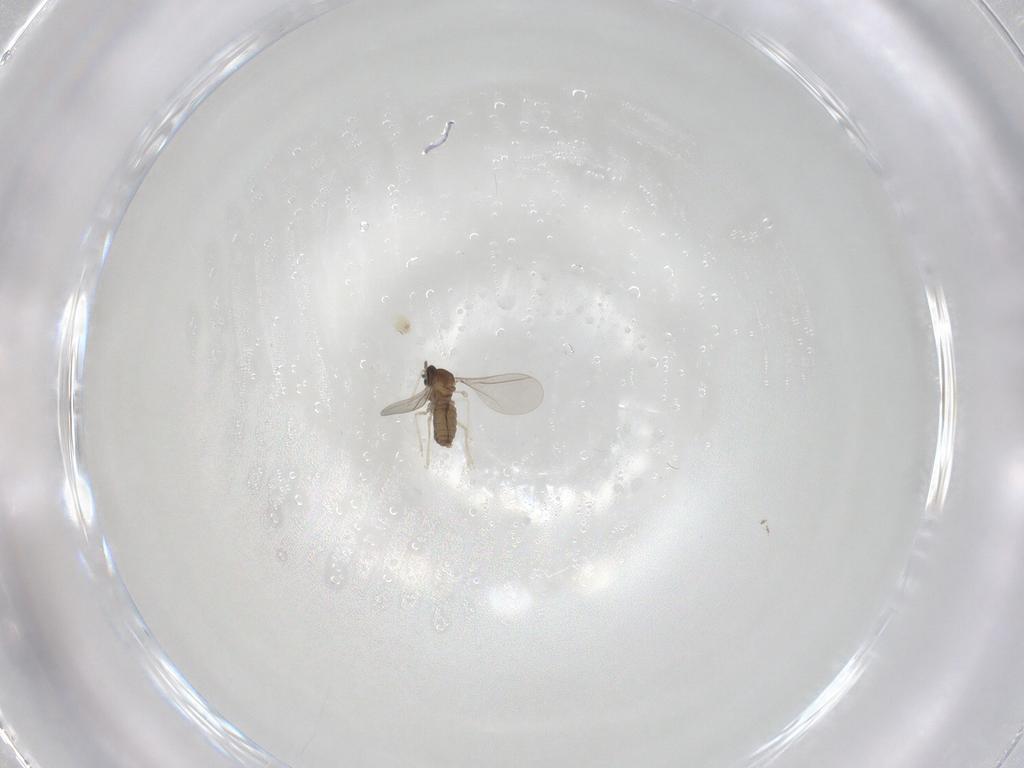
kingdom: Animalia
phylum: Arthropoda
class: Insecta
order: Diptera
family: Cecidomyiidae
